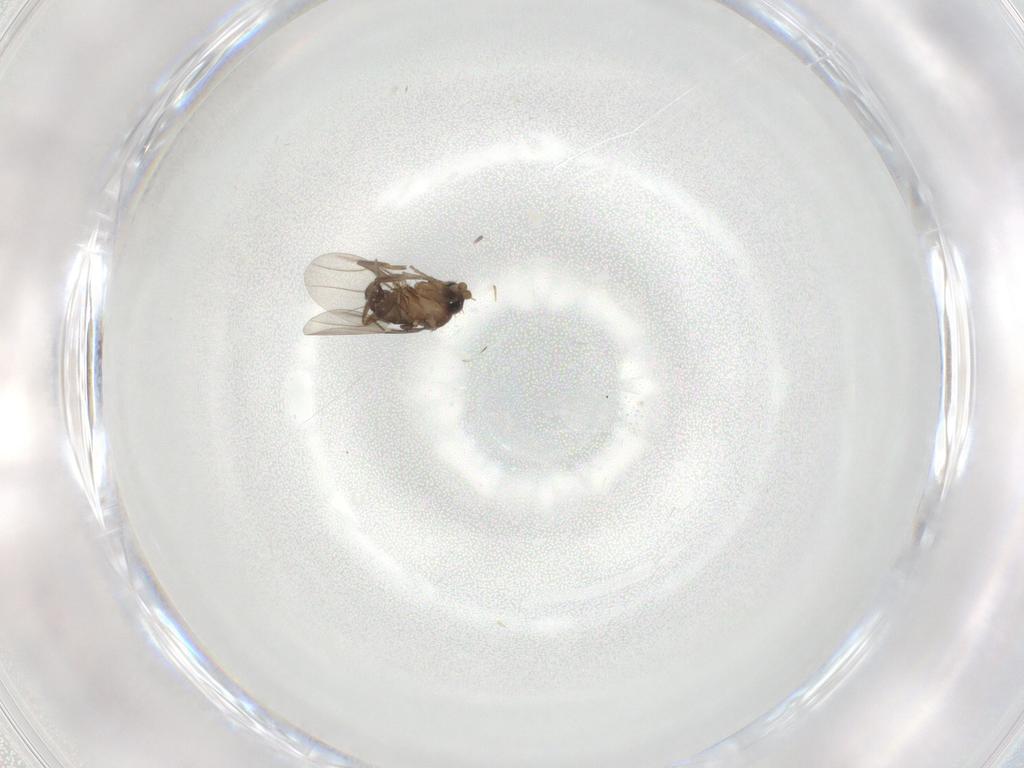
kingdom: Animalia
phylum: Arthropoda
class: Insecta
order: Diptera
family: Phoridae
